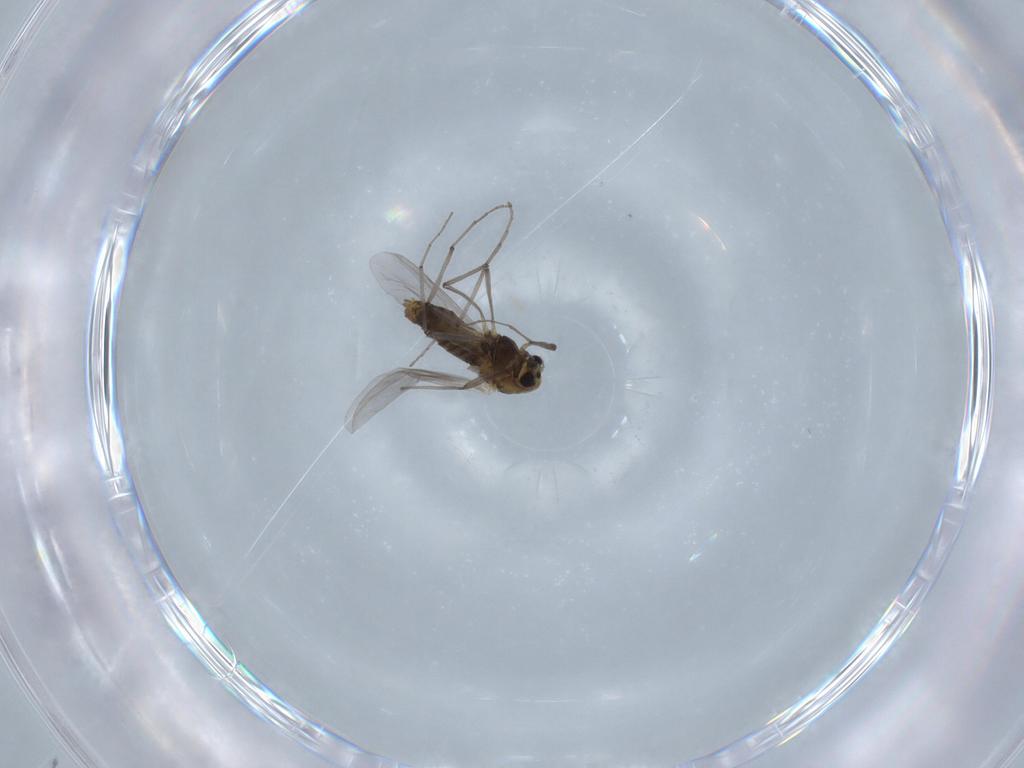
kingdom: Animalia
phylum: Arthropoda
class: Insecta
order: Diptera
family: Chironomidae
